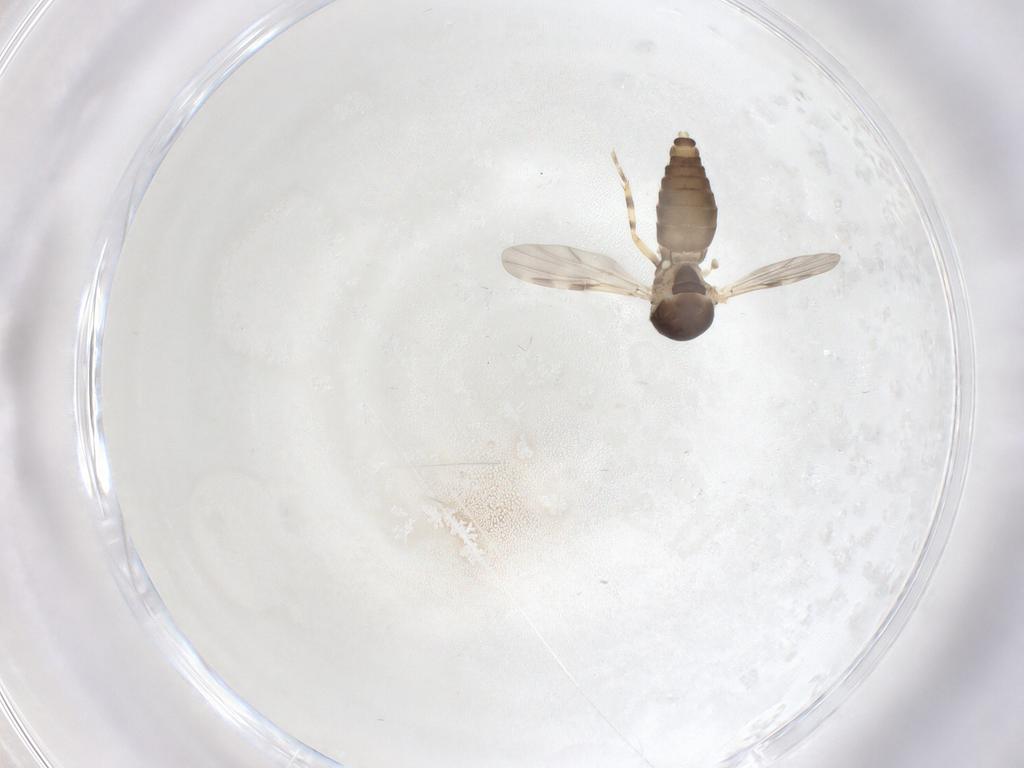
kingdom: Animalia
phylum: Arthropoda
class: Insecta
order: Diptera
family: Ceratopogonidae
